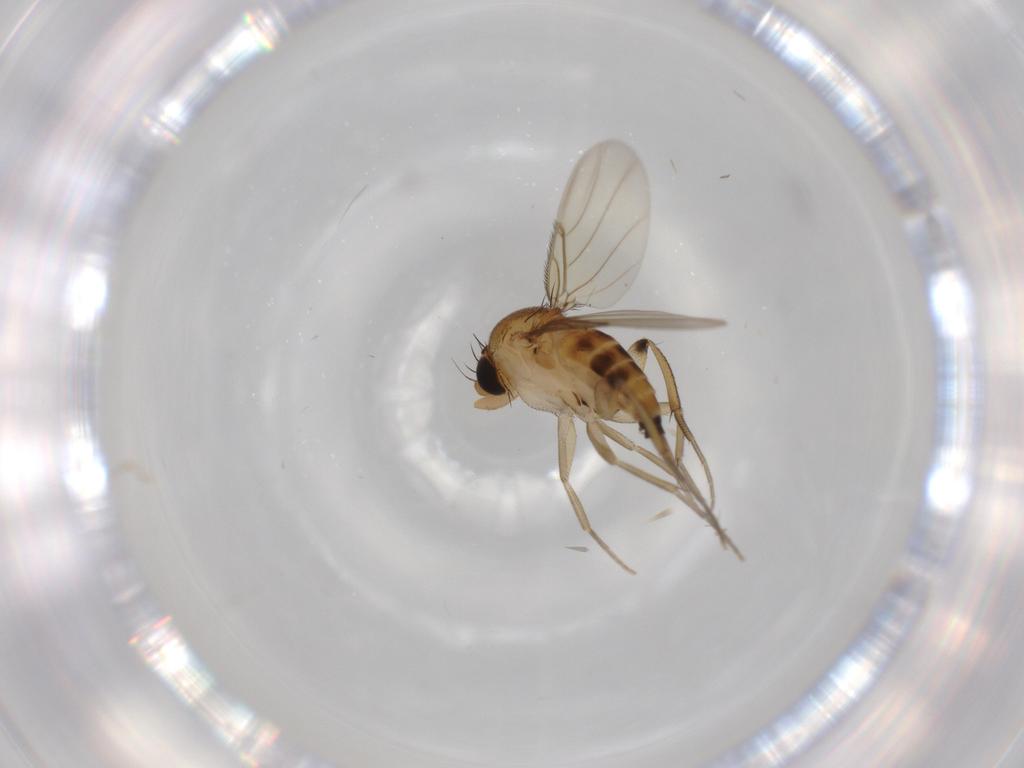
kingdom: Animalia
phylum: Arthropoda
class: Insecta
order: Diptera
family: Phoridae
